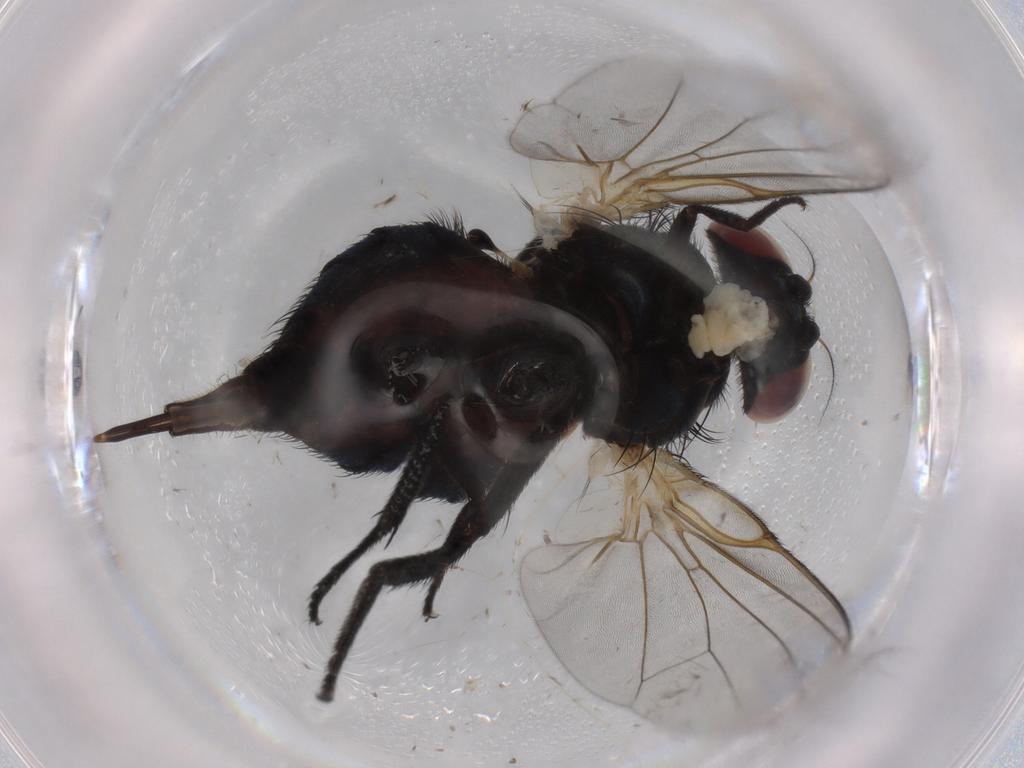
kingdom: Animalia
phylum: Arthropoda
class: Insecta
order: Diptera
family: Lonchaeidae
